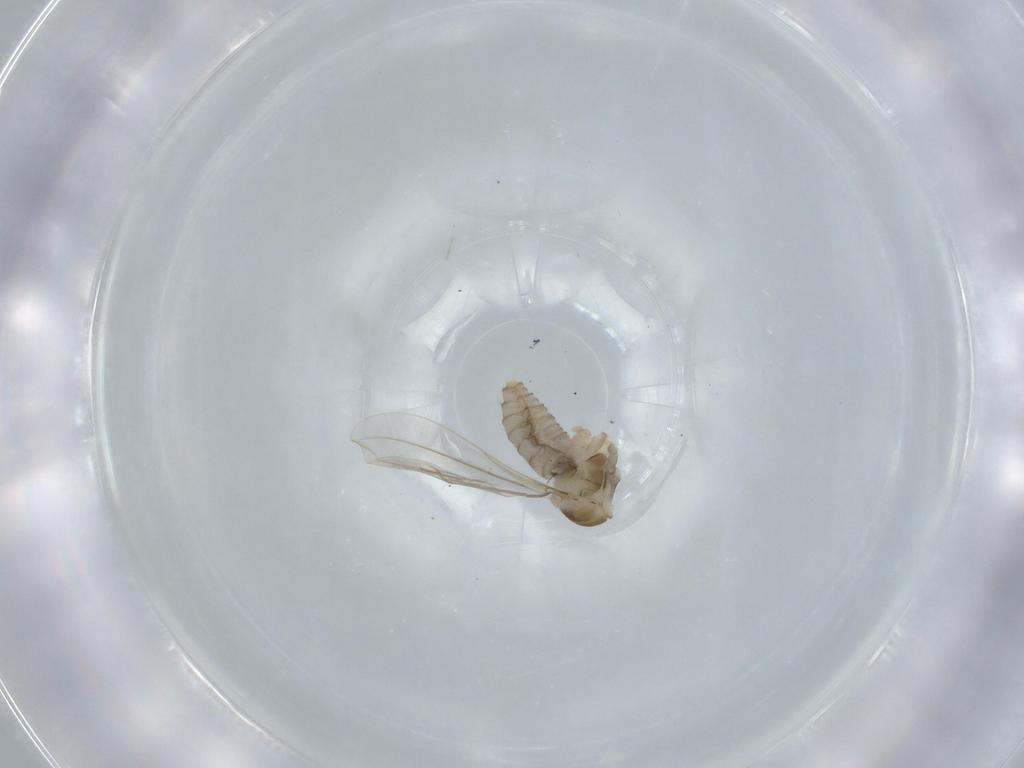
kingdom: Animalia
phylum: Arthropoda
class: Insecta
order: Diptera
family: Cecidomyiidae
